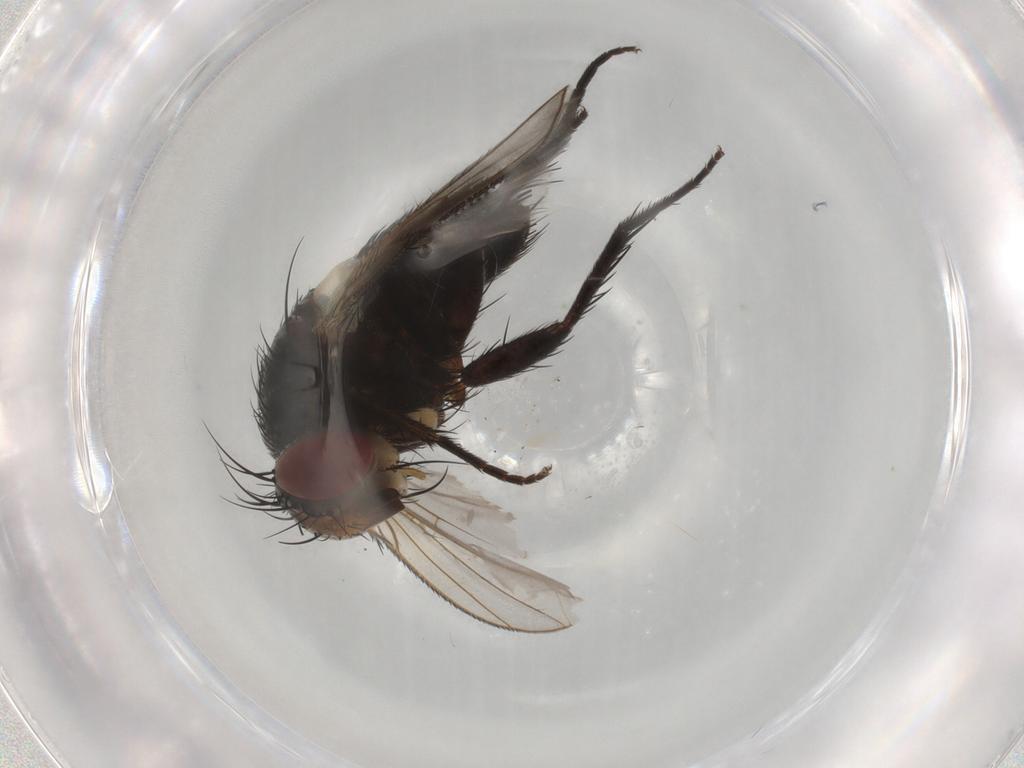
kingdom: Animalia
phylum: Arthropoda
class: Insecta
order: Diptera
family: Tachinidae
